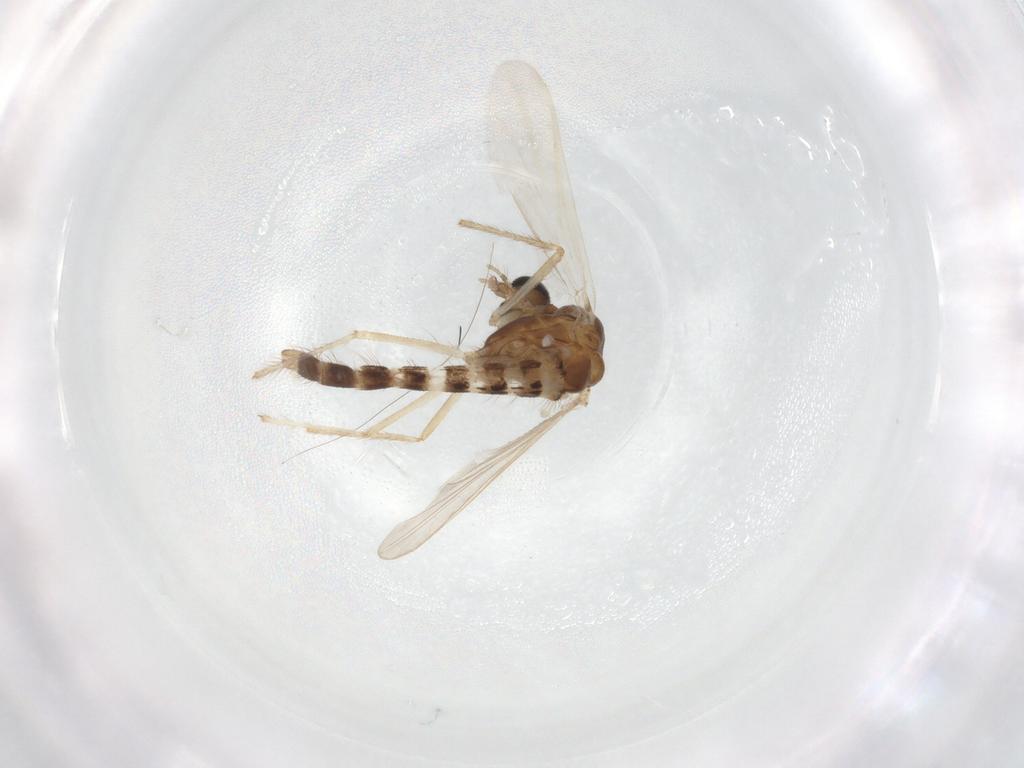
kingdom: Animalia
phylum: Arthropoda
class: Insecta
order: Diptera
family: Chironomidae
